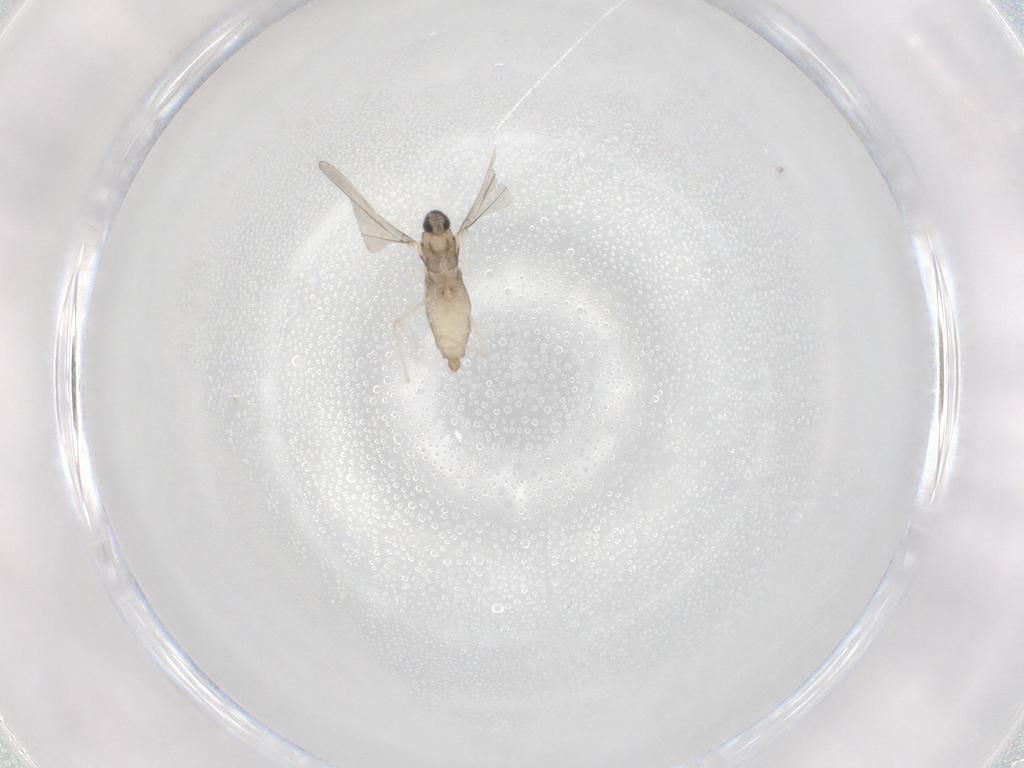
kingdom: Animalia
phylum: Arthropoda
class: Insecta
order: Diptera
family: Cecidomyiidae
